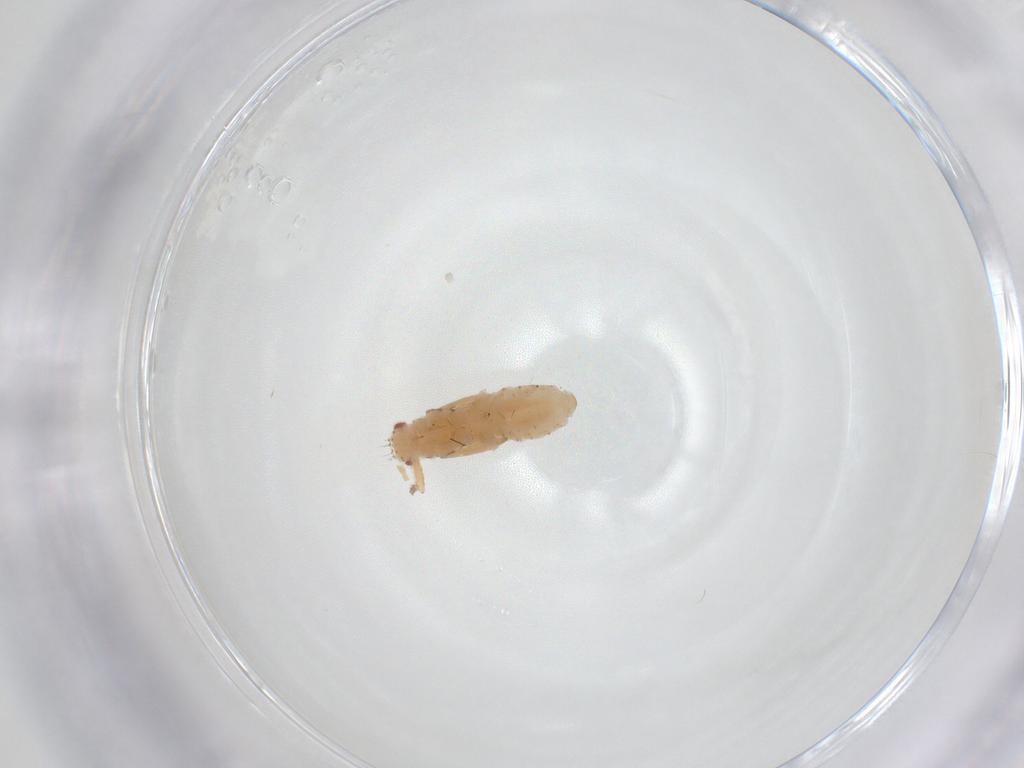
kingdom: Animalia
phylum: Arthropoda
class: Insecta
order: Hemiptera
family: Aphididae
